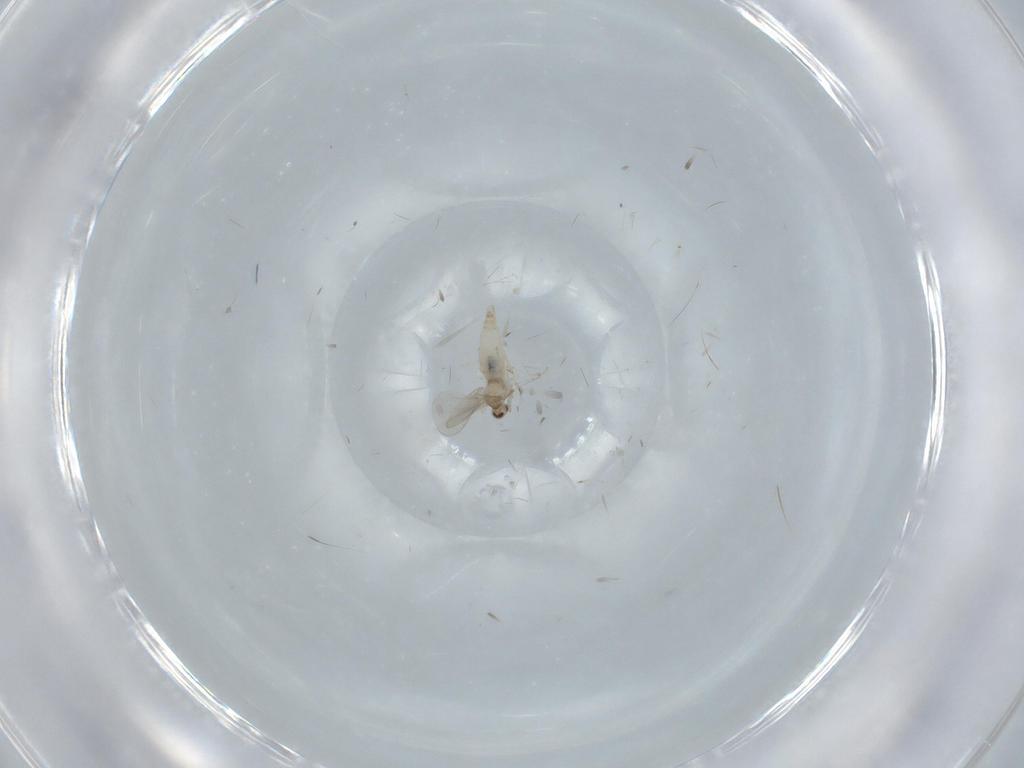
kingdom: Animalia
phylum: Arthropoda
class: Insecta
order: Diptera
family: Cecidomyiidae
